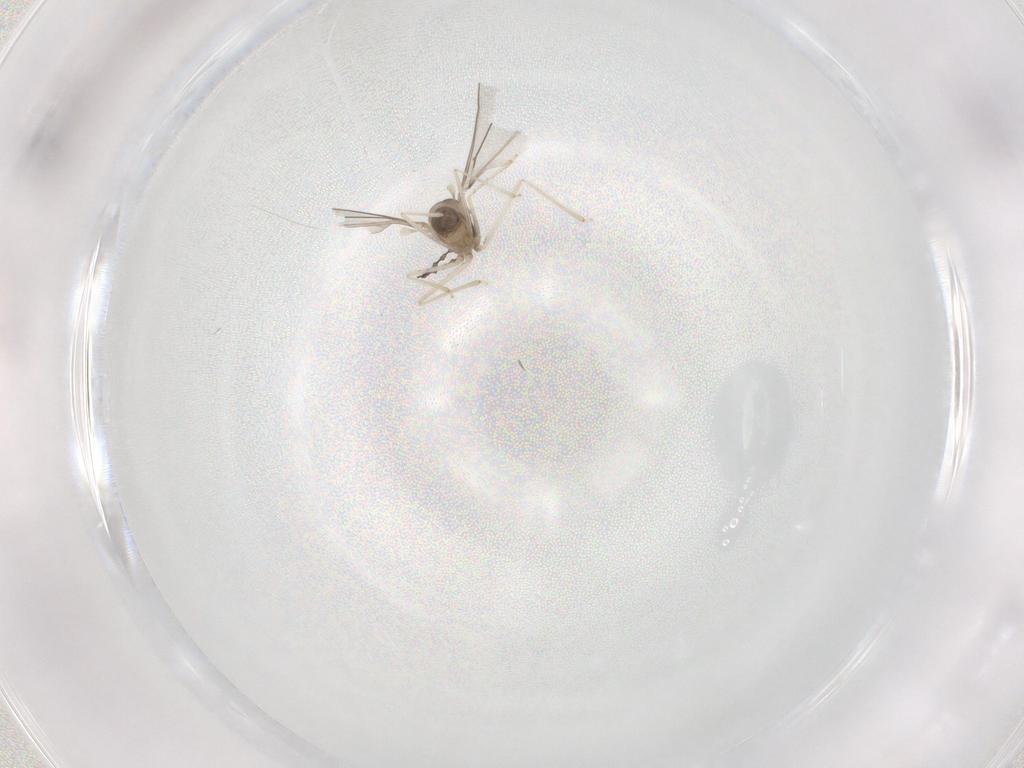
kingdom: Animalia
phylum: Arthropoda
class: Insecta
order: Diptera
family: Cecidomyiidae
